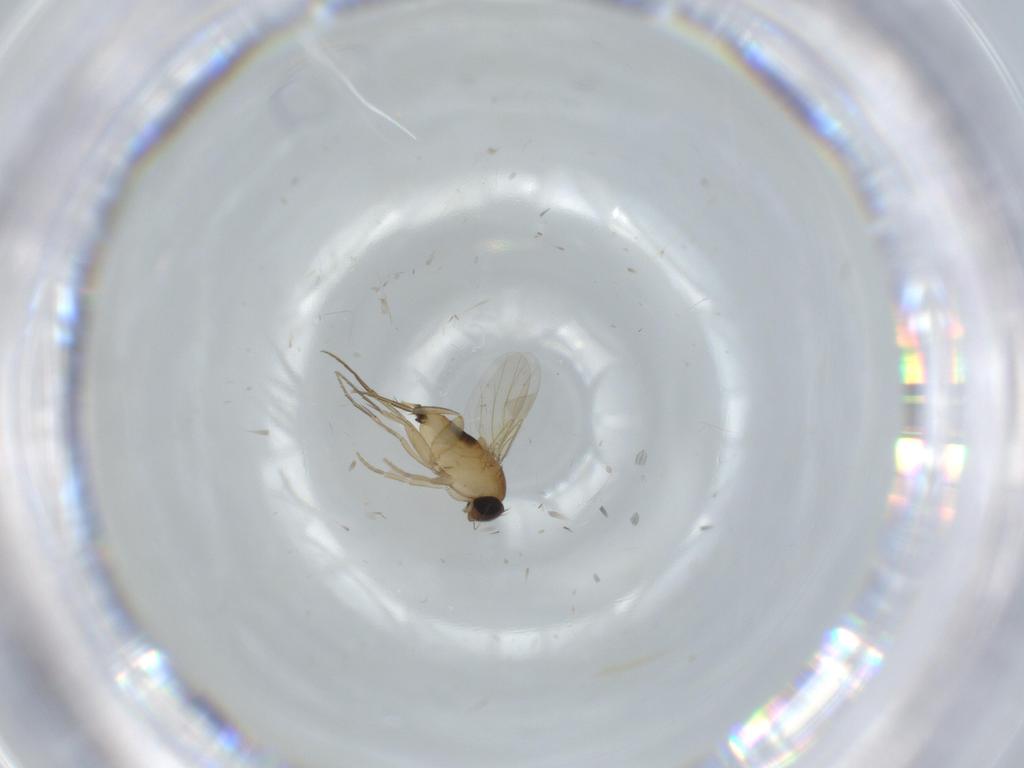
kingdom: Animalia
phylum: Arthropoda
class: Insecta
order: Diptera
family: Phoridae
